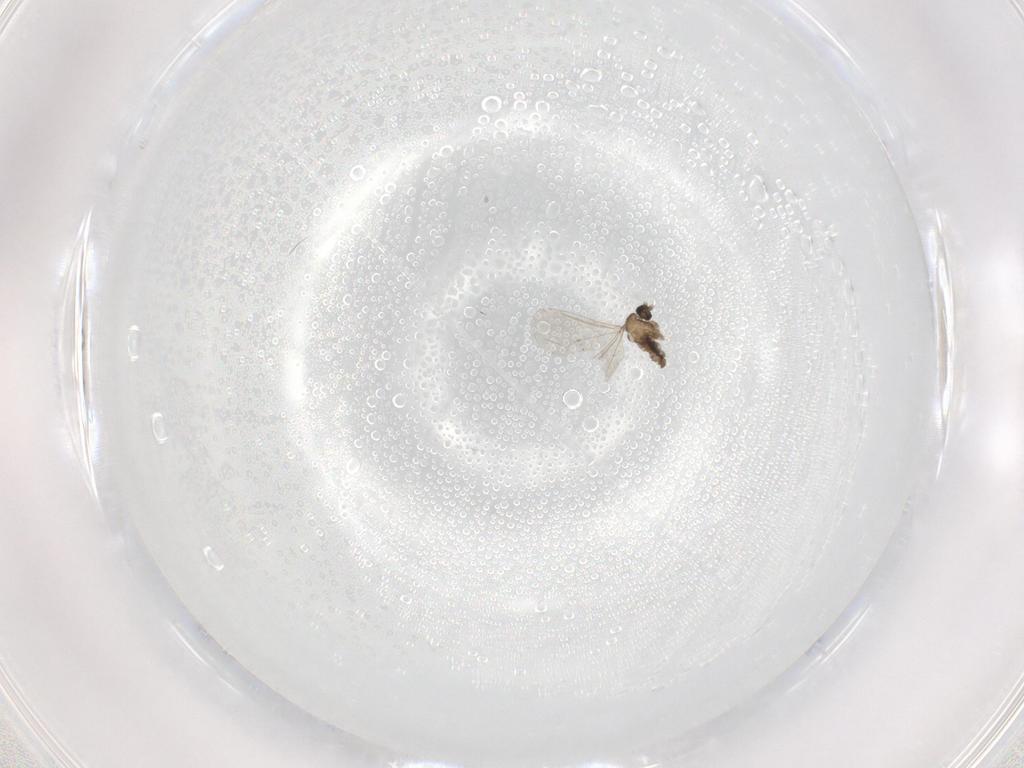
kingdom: Animalia
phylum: Arthropoda
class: Insecta
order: Diptera
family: Cecidomyiidae
